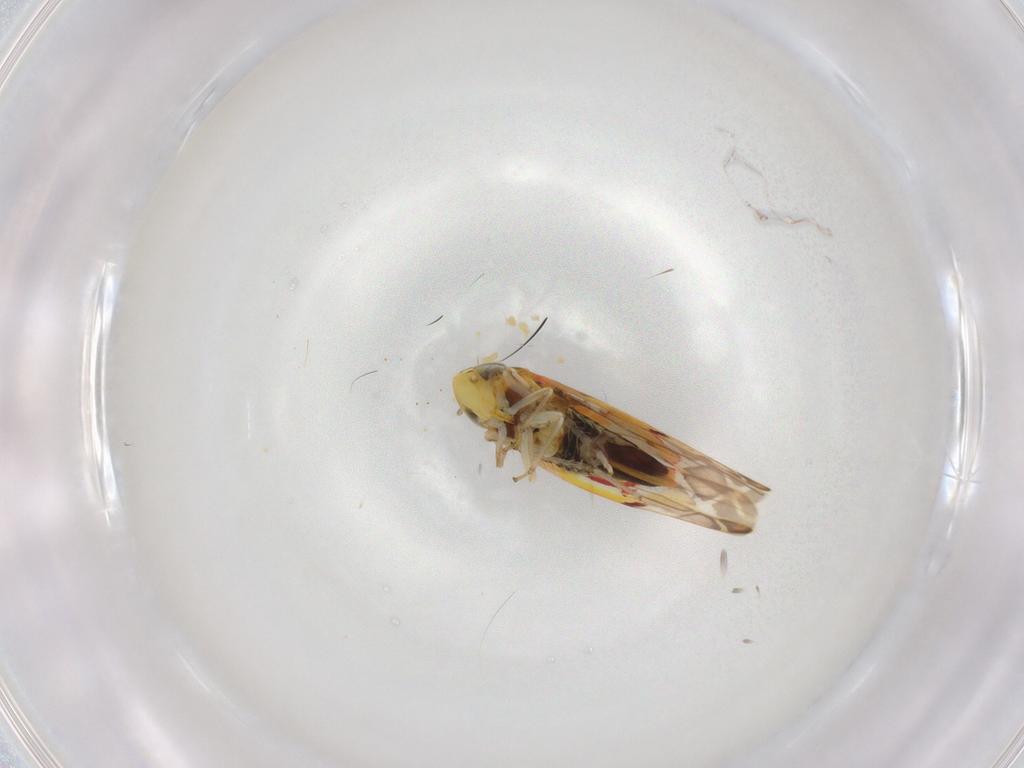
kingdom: Animalia
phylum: Arthropoda
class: Insecta
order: Hemiptera
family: Cicadellidae
